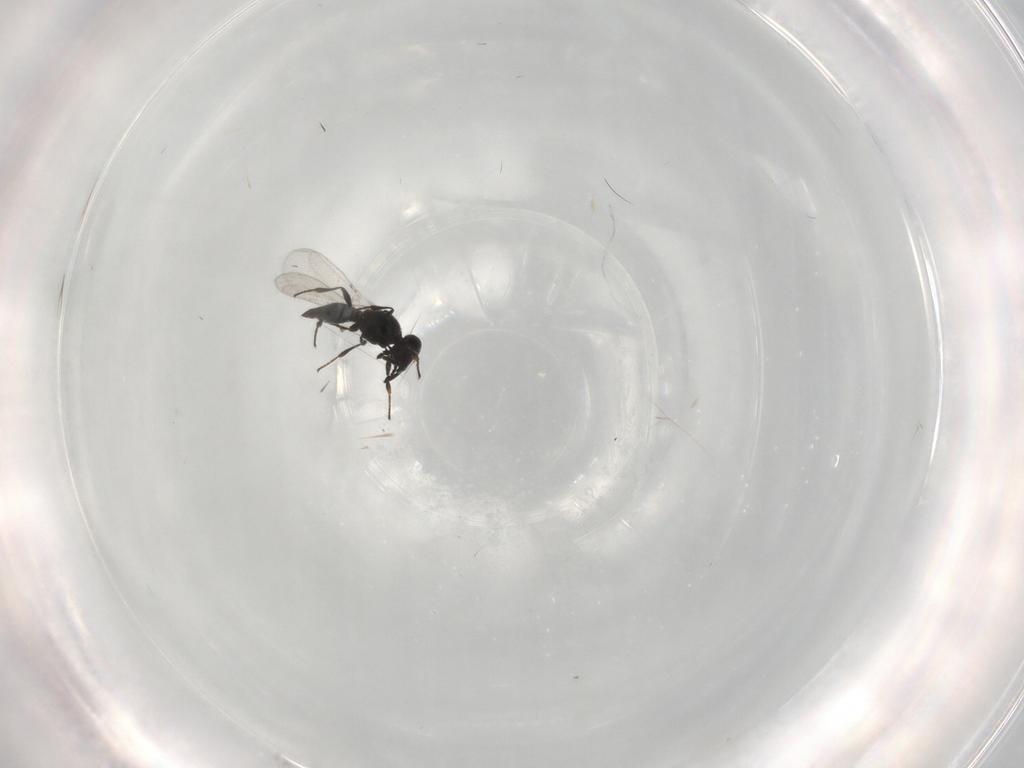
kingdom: Animalia
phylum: Arthropoda
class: Insecta
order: Diptera
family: Mythicomyiidae
